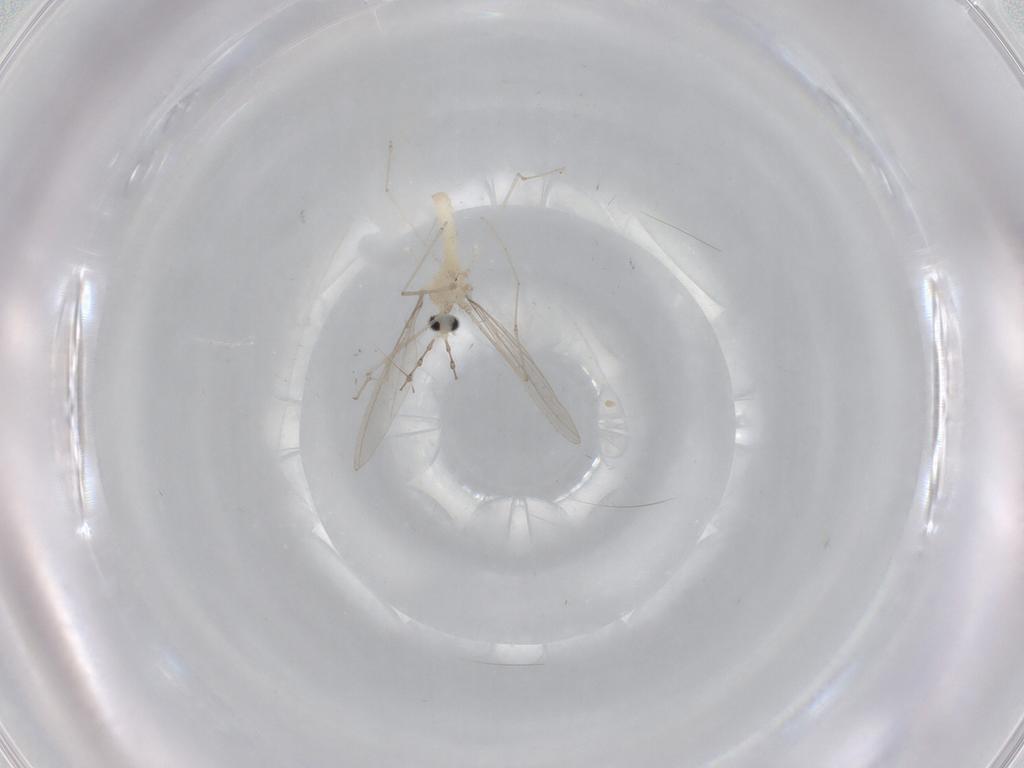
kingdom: Animalia
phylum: Arthropoda
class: Insecta
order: Diptera
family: Cecidomyiidae
